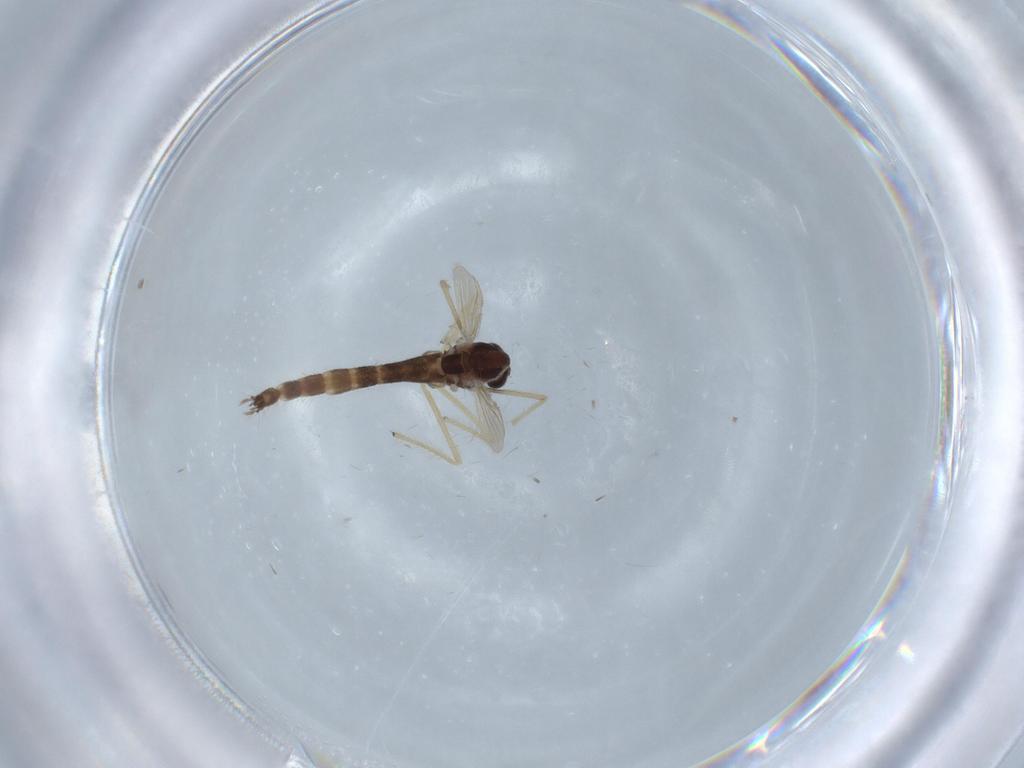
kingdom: Animalia
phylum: Arthropoda
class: Insecta
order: Diptera
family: Chironomidae
